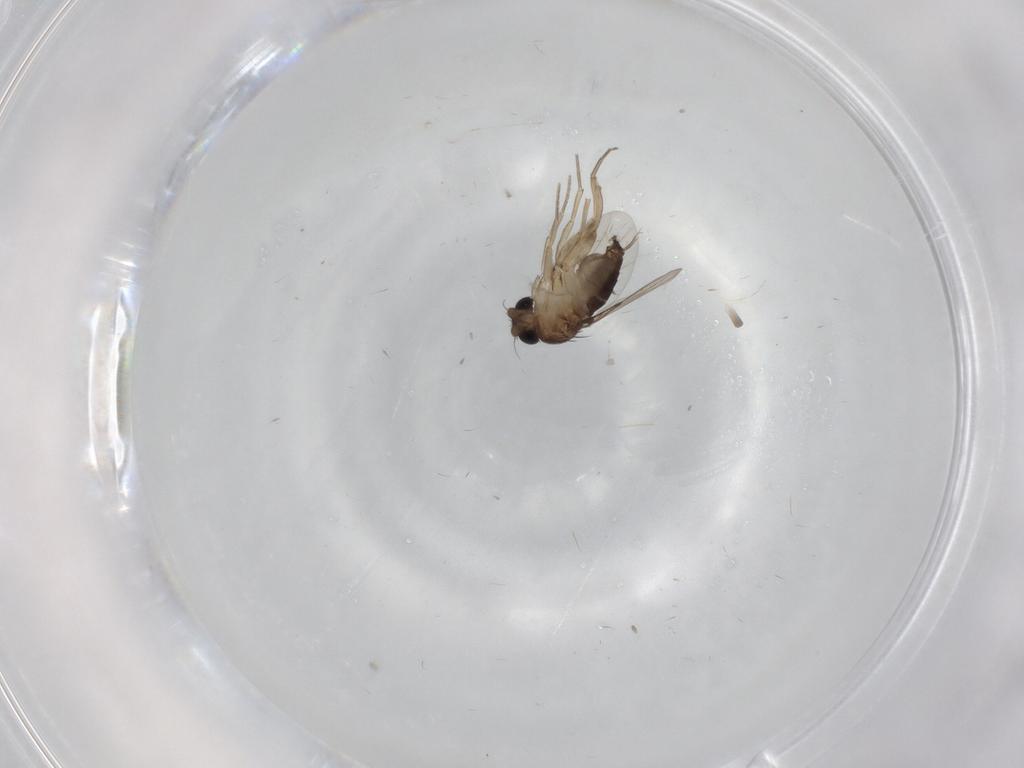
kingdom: Animalia
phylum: Arthropoda
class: Insecta
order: Diptera
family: Phoridae
